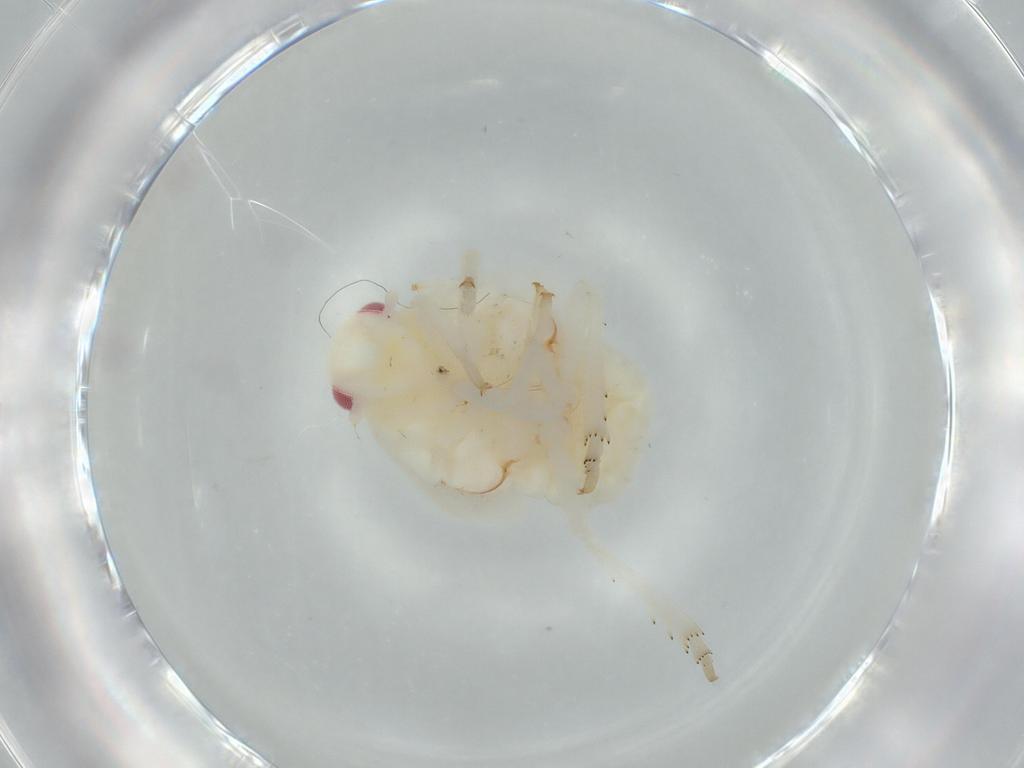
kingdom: Animalia
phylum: Arthropoda
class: Insecta
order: Hemiptera
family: Flatidae
